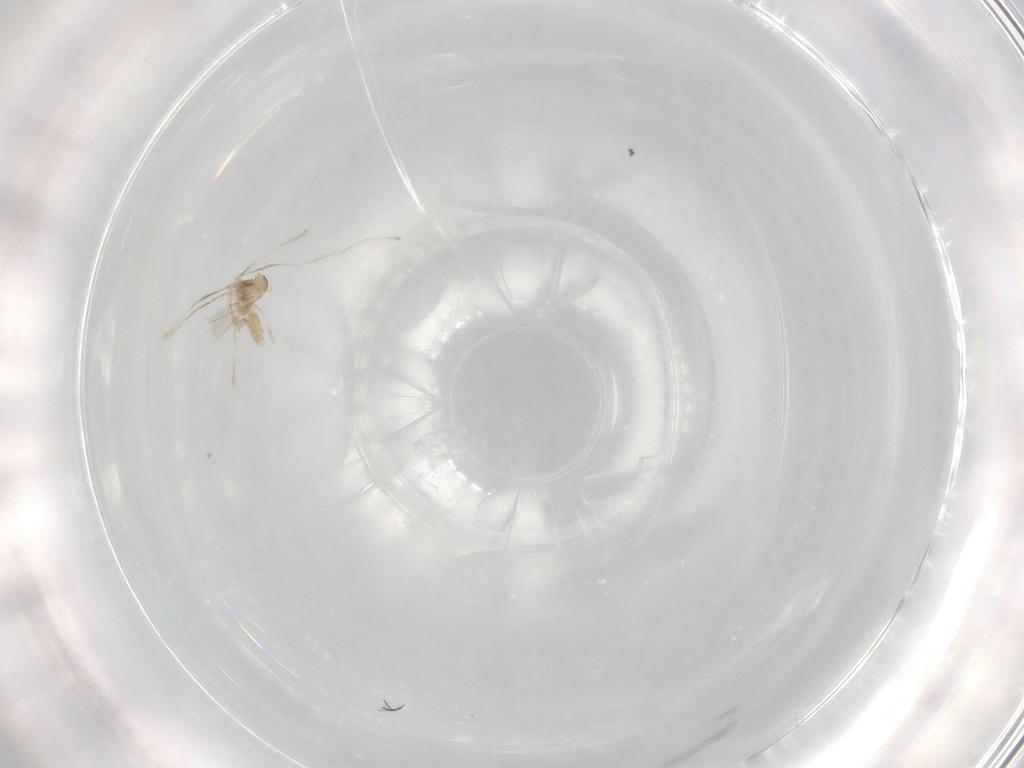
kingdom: Animalia
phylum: Arthropoda
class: Insecta
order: Diptera
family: Cecidomyiidae
